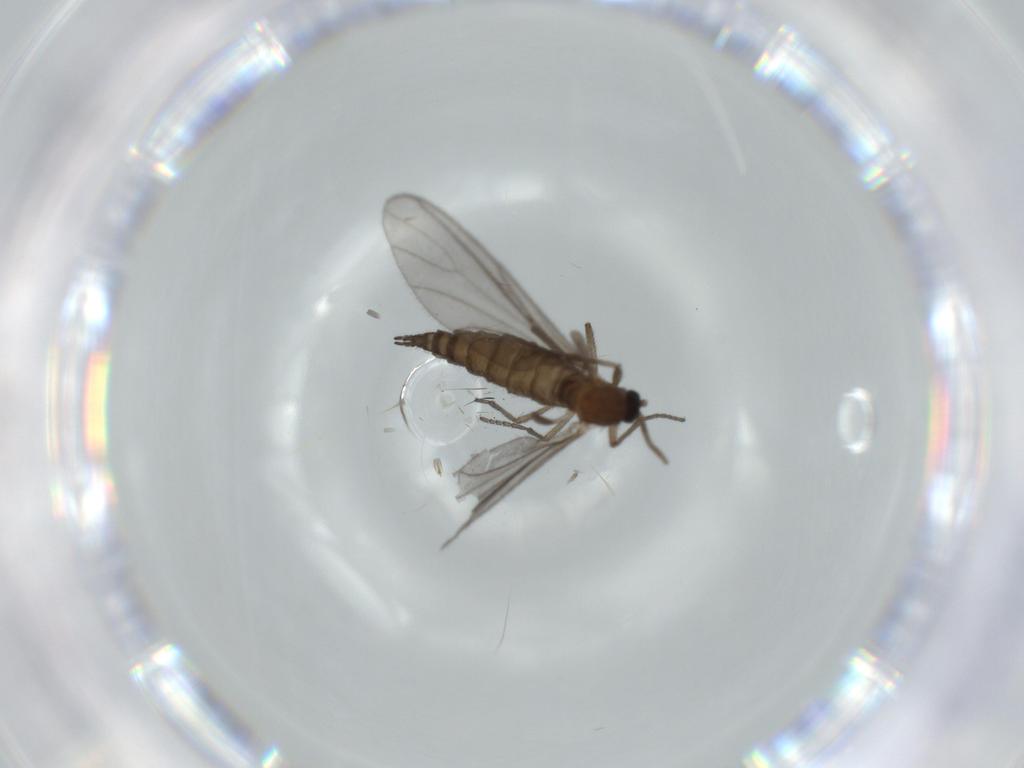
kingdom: Animalia
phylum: Arthropoda
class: Insecta
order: Diptera
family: Sciaridae
